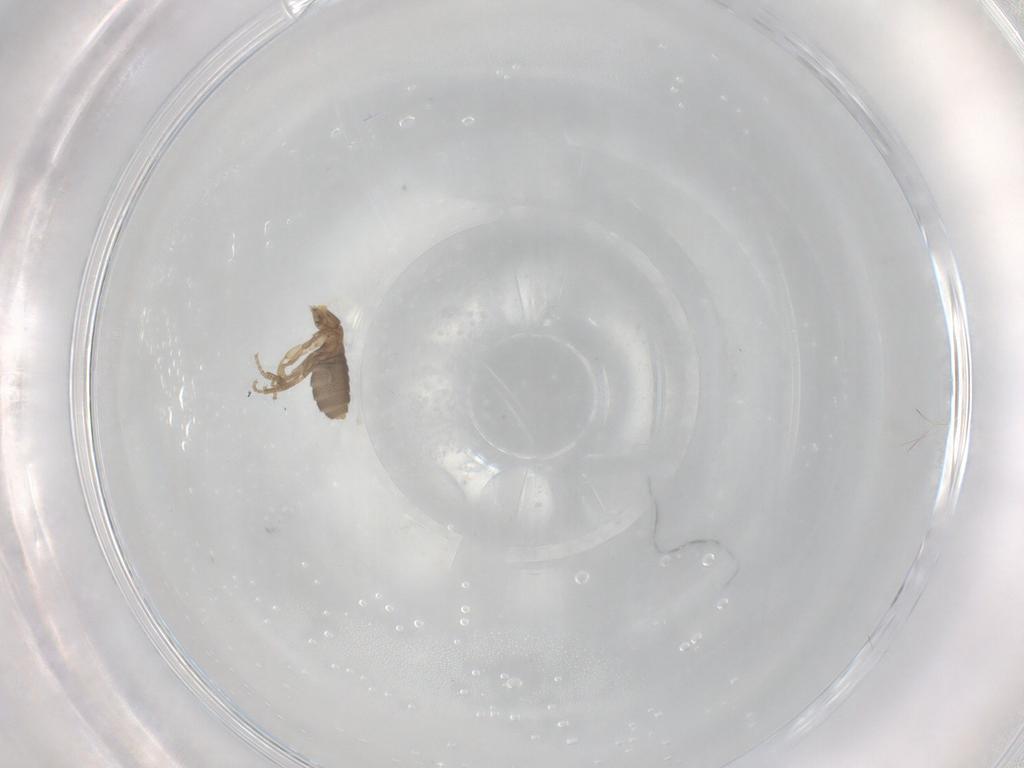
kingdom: Animalia
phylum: Arthropoda
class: Insecta
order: Diptera
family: Phoridae
